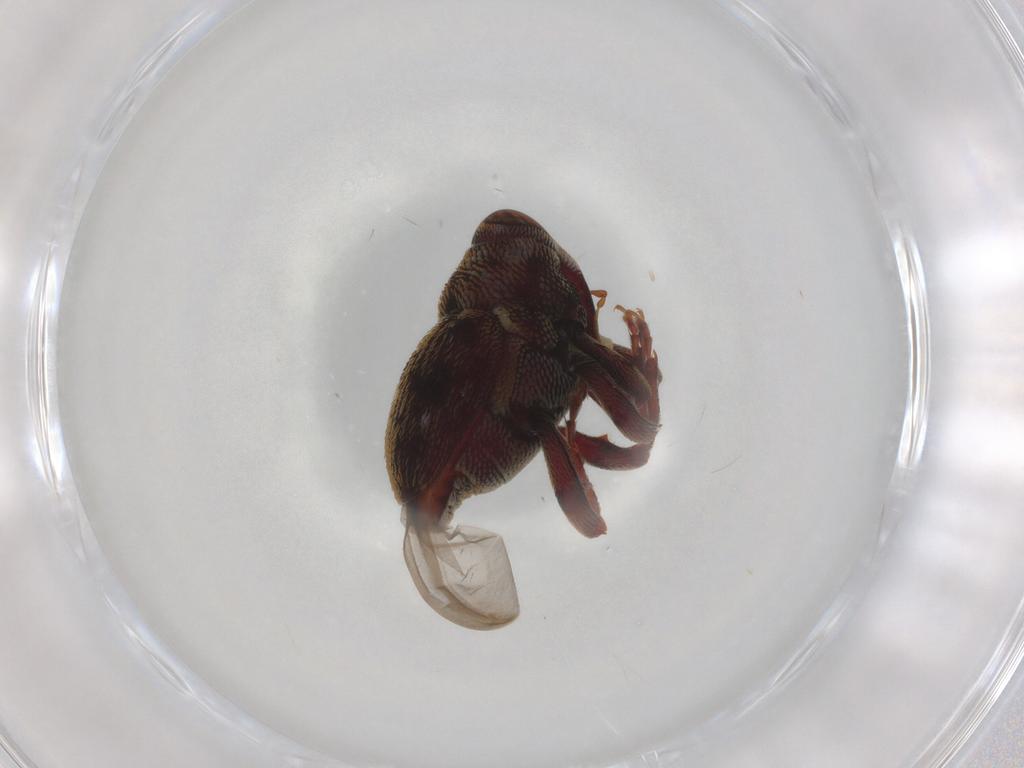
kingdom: Animalia
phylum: Arthropoda
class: Insecta
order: Coleoptera
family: Curculionidae
